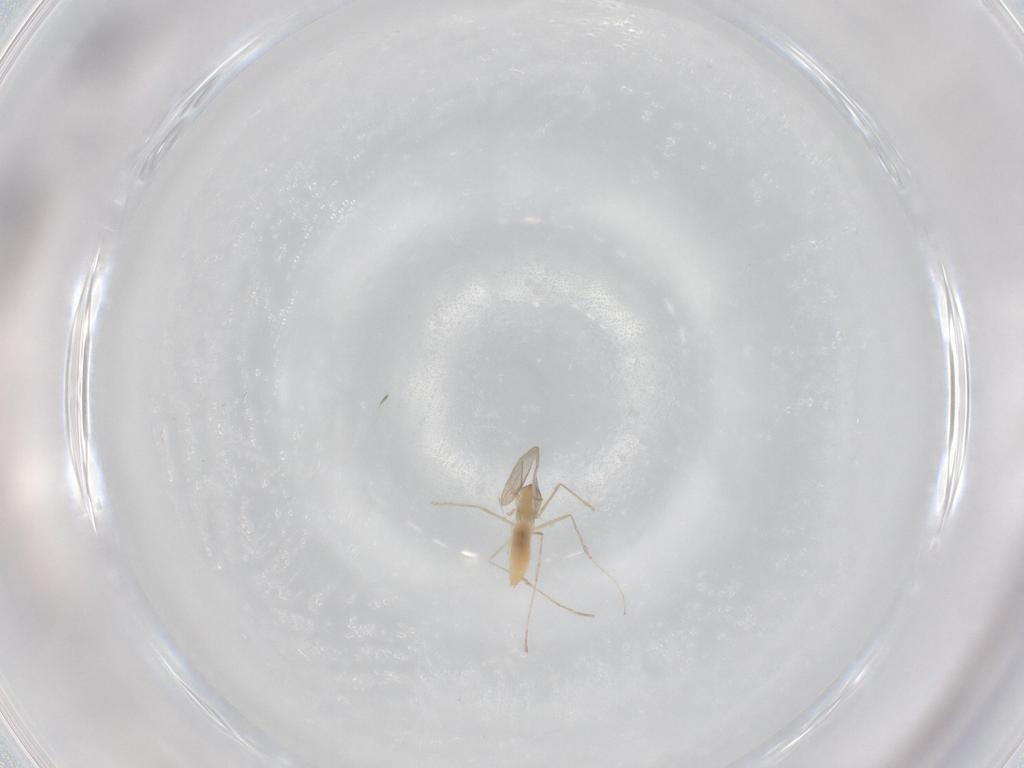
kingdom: Animalia
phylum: Arthropoda
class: Insecta
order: Diptera
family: Cecidomyiidae
